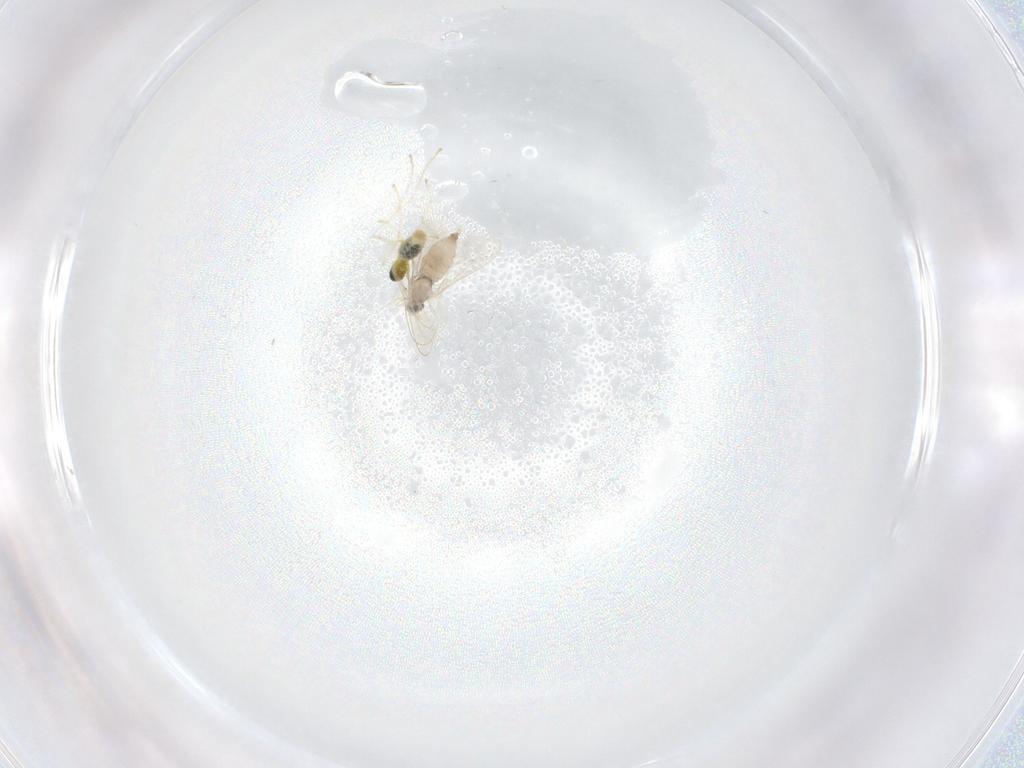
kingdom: Animalia
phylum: Arthropoda
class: Insecta
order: Diptera
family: Cecidomyiidae
